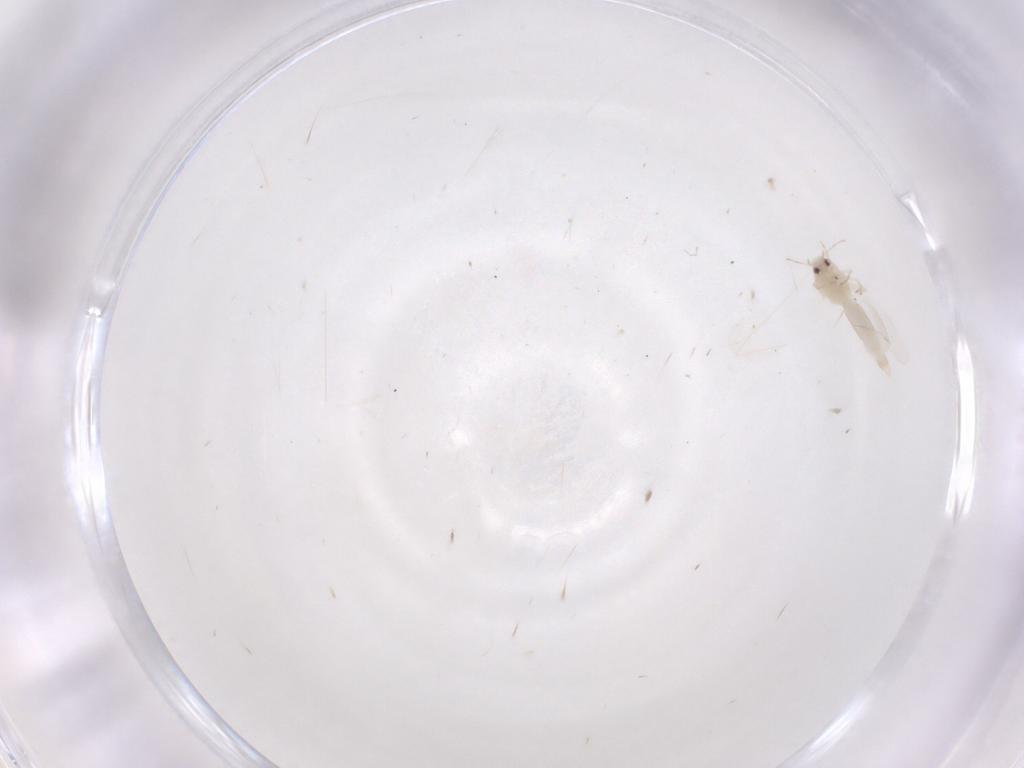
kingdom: Animalia
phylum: Arthropoda
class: Insecta
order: Hemiptera
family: Aleyrodidae
